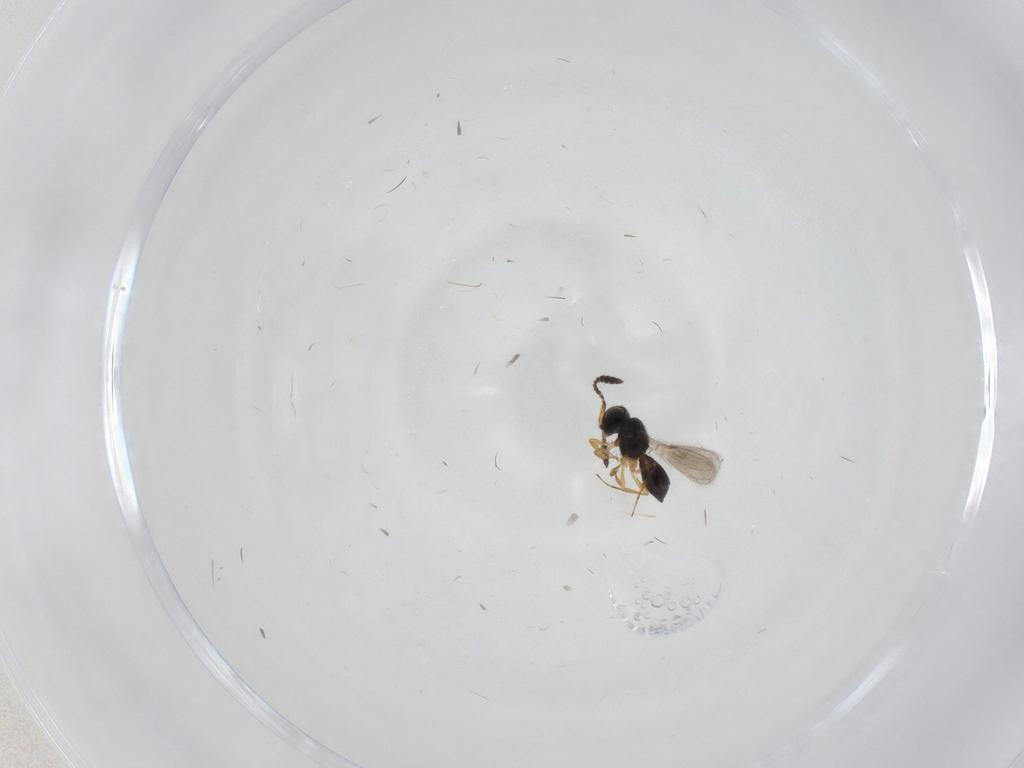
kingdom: Animalia
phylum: Arthropoda
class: Insecta
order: Hymenoptera
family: Scelionidae
